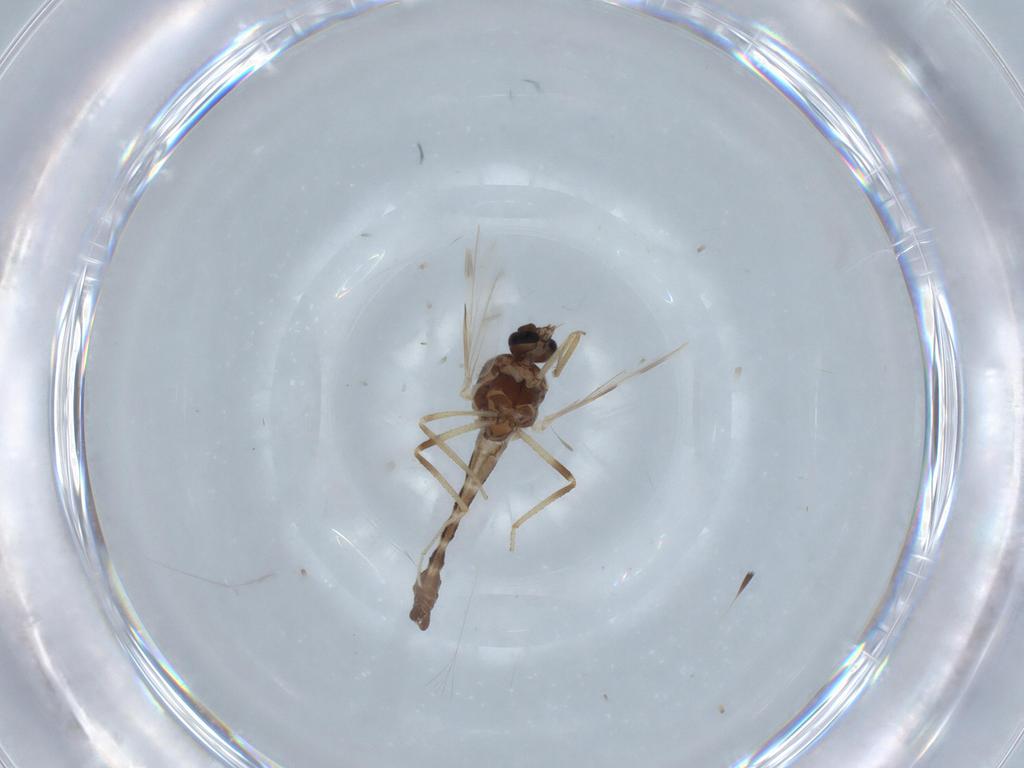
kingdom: Animalia
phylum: Arthropoda
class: Insecta
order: Diptera
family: Ceratopogonidae
